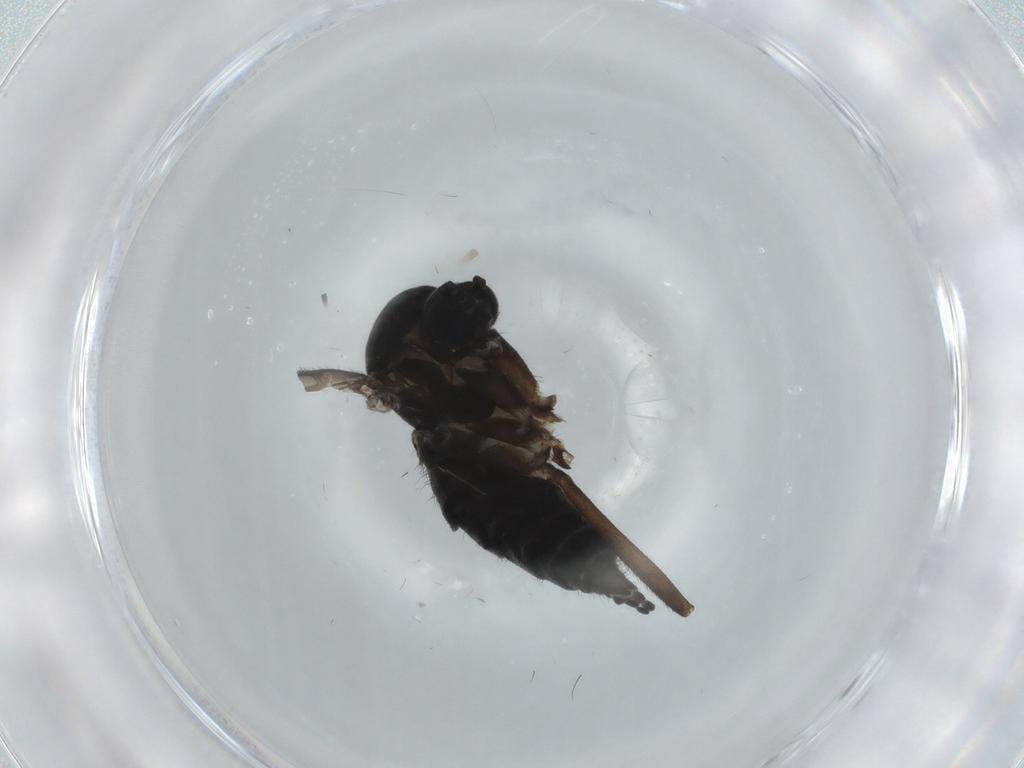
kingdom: Animalia
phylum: Arthropoda
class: Insecta
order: Diptera
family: Sciaridae
